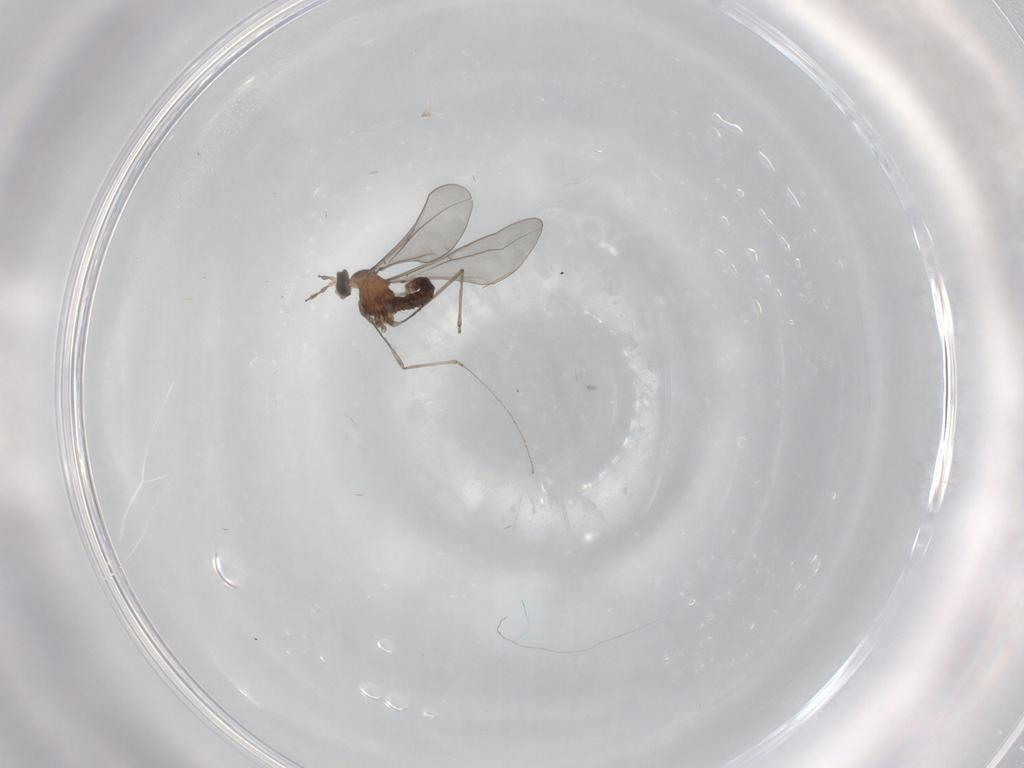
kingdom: Animalia
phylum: Arthropoda
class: Insecta
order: Diptera
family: Cecidomyiidae
